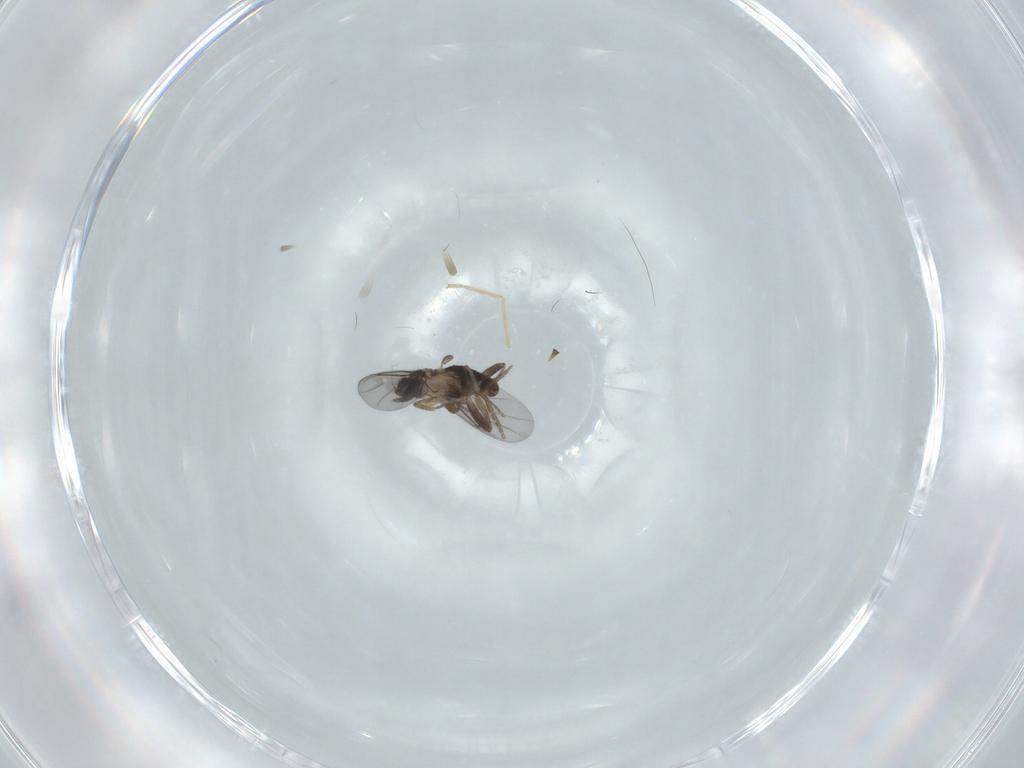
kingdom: Animalia
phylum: Arthropoda
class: Insecta
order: Diptera
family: Chironomidae
